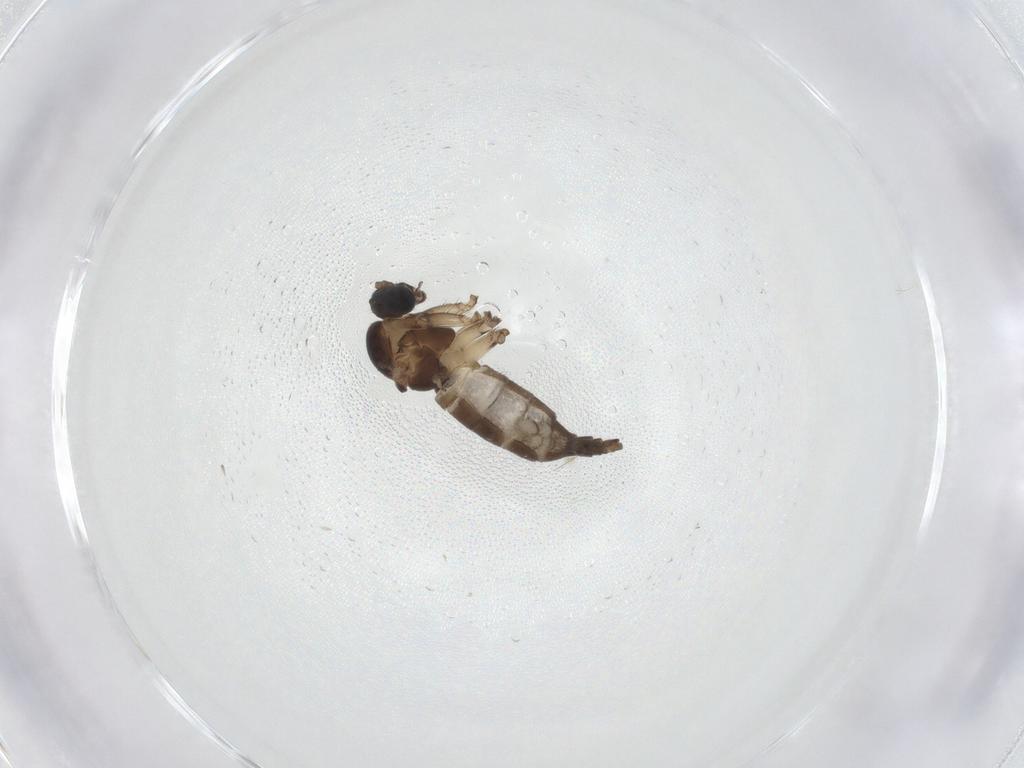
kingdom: Animalia
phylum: Arthropoda
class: Insecta
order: Diptera
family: Sciaridae
